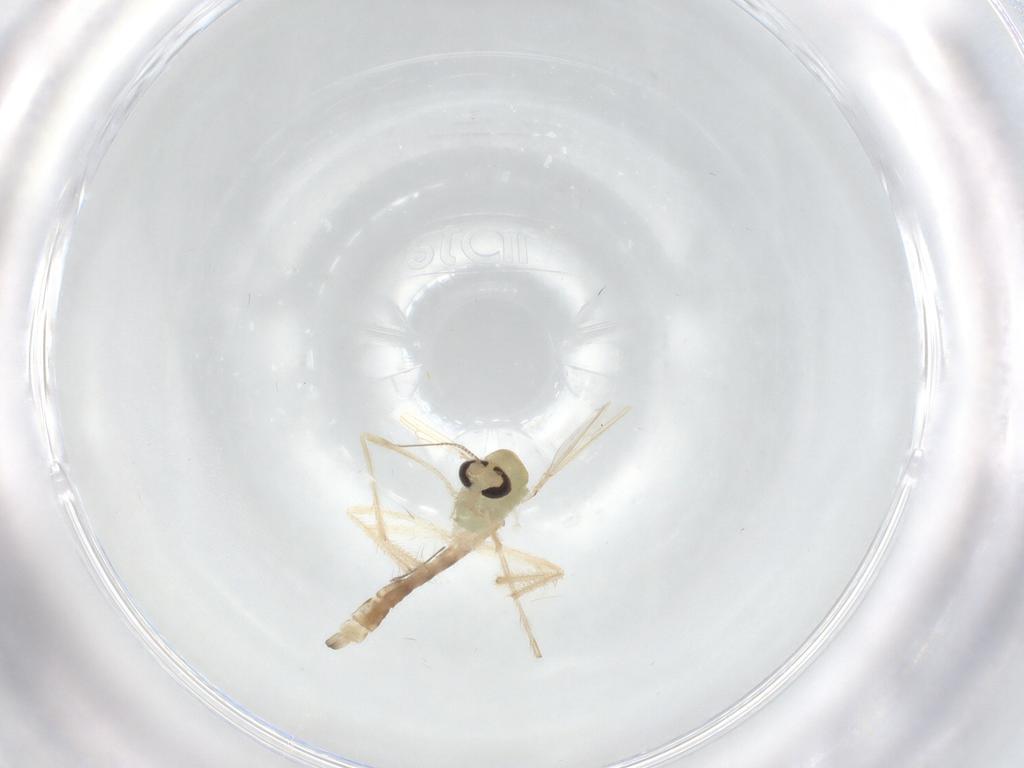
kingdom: Animalia
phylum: Arthropoda
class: Insecta
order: Diptera
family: Chironomidae
